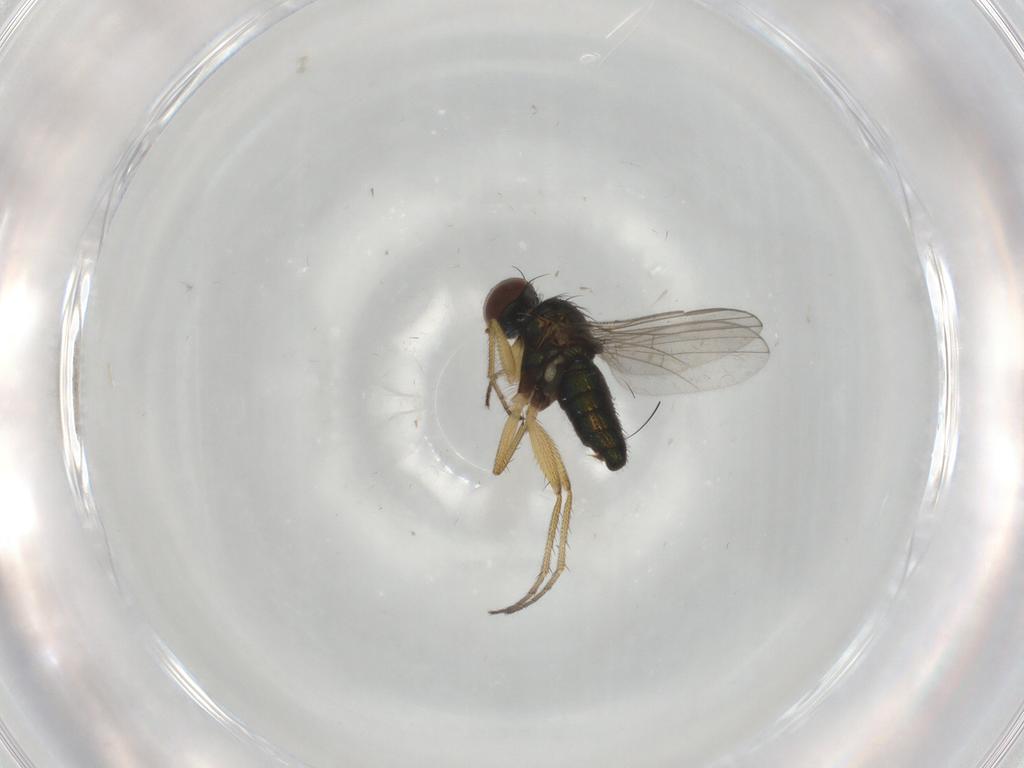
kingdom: Animalia
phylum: Arthropoda
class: Insecta
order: Diptera
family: Dolichopodidae
